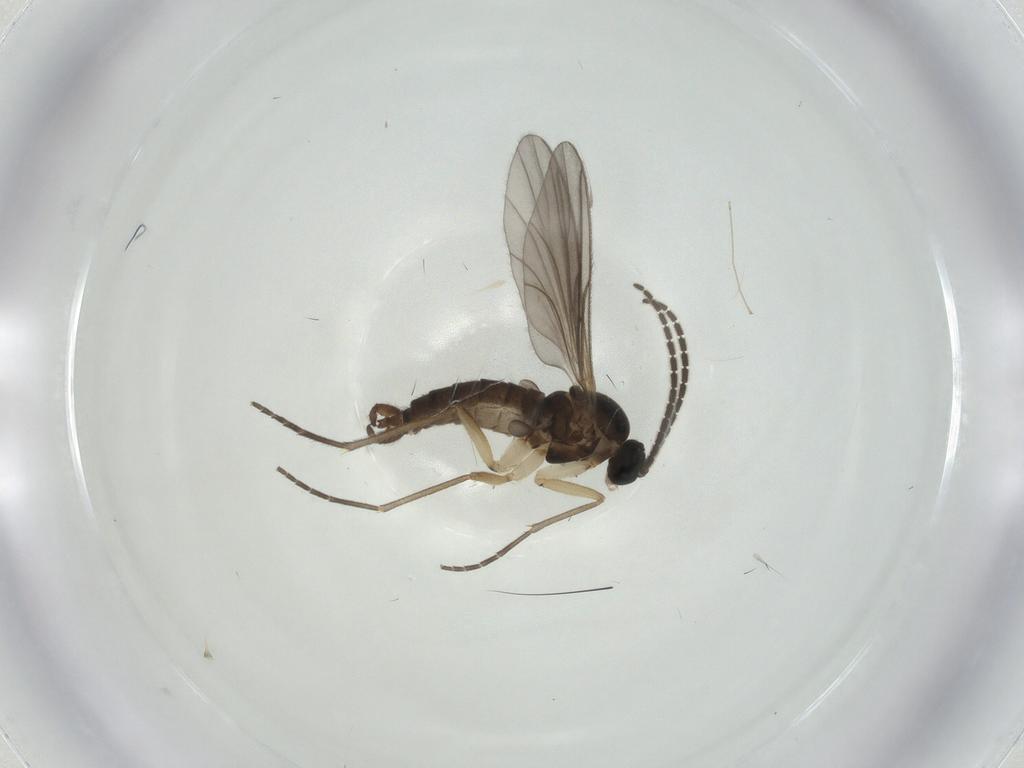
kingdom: Animalia
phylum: Arthropoda
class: Insecta
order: Diptera
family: Sciaridae
